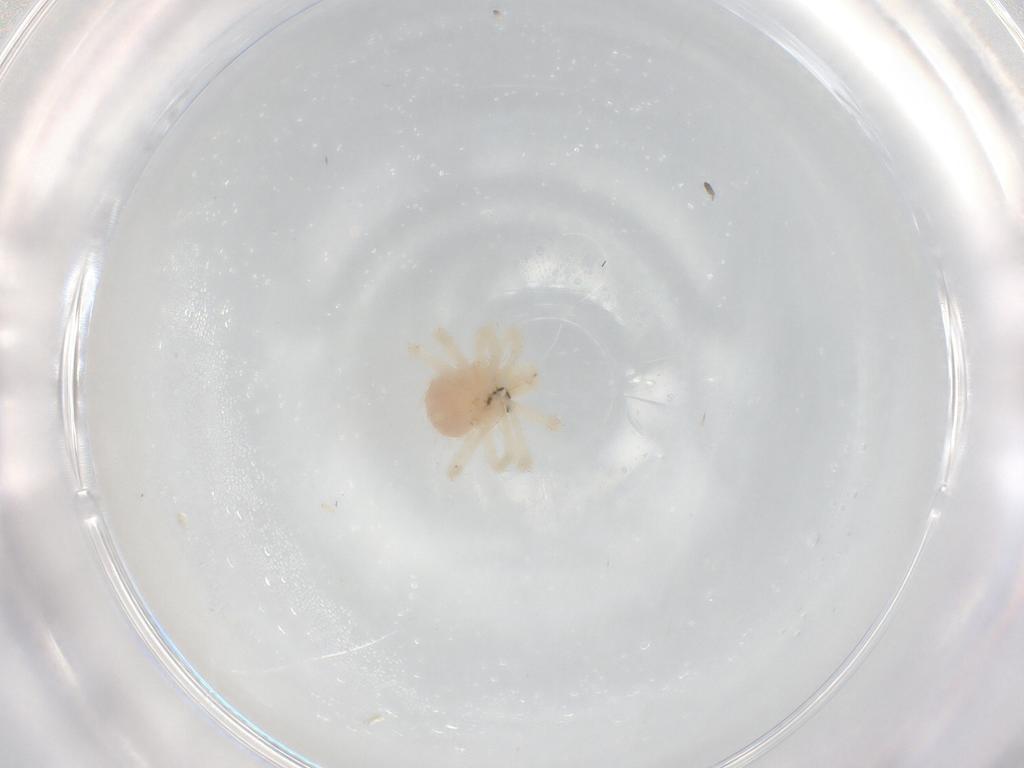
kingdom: Animalia
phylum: Arthropoda
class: Arachnida
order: Trombidiformes
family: Anystidae
